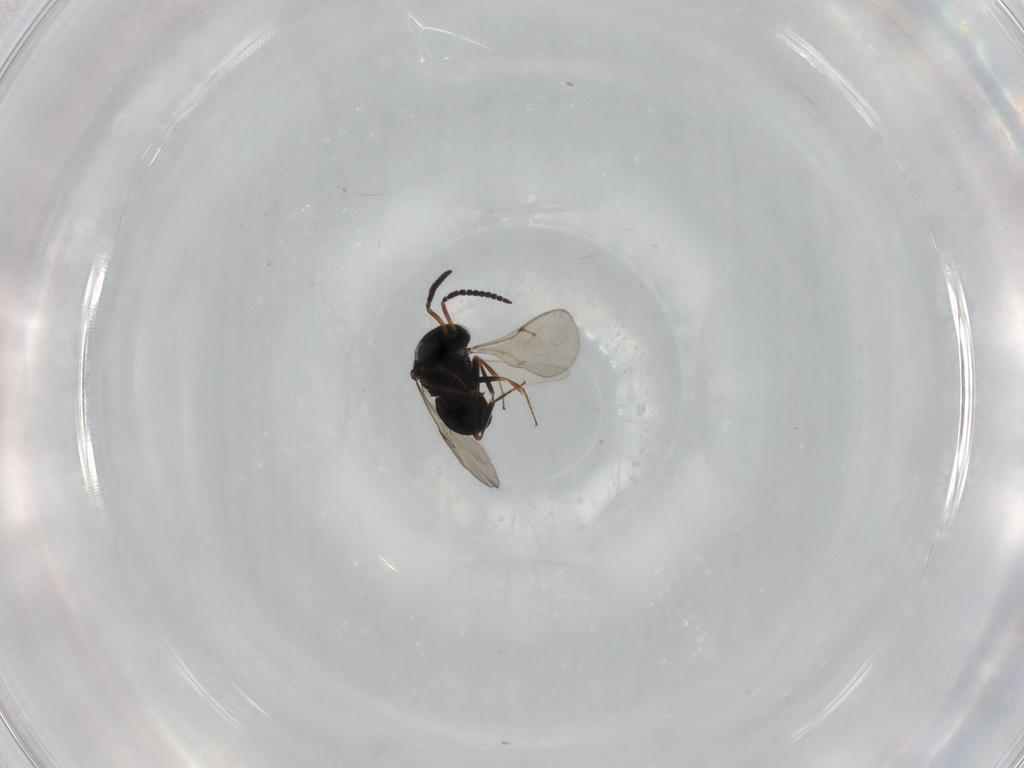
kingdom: Animalia
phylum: Arthropoda
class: Insecta
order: Hymenoptera
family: Scelionidae
